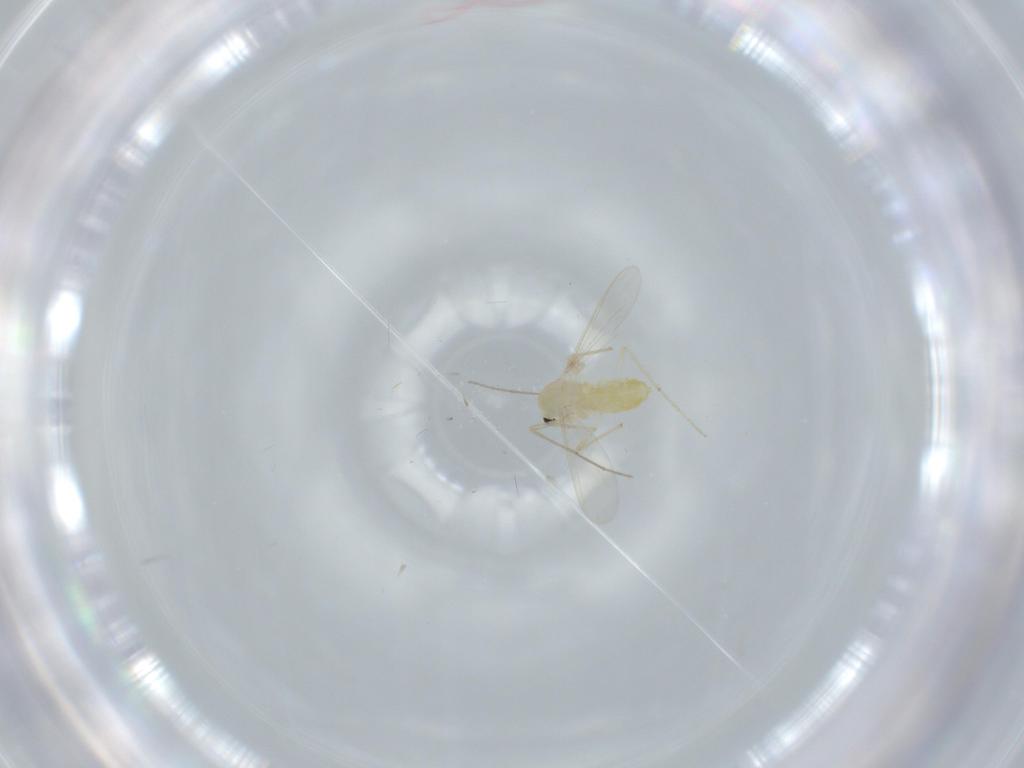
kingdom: Animalia
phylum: Arthropoda
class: Insecta
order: Diptera
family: Chironomidae
